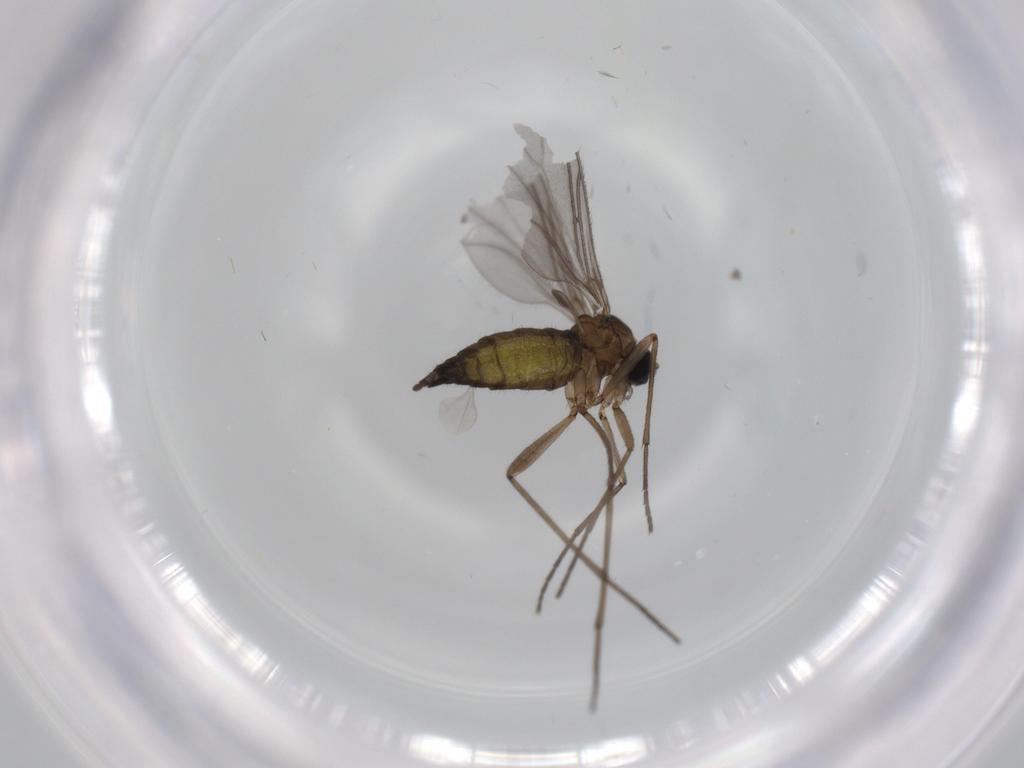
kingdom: Animalia
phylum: Arthropoda
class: Insecta
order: Diptera
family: Sciaridae
